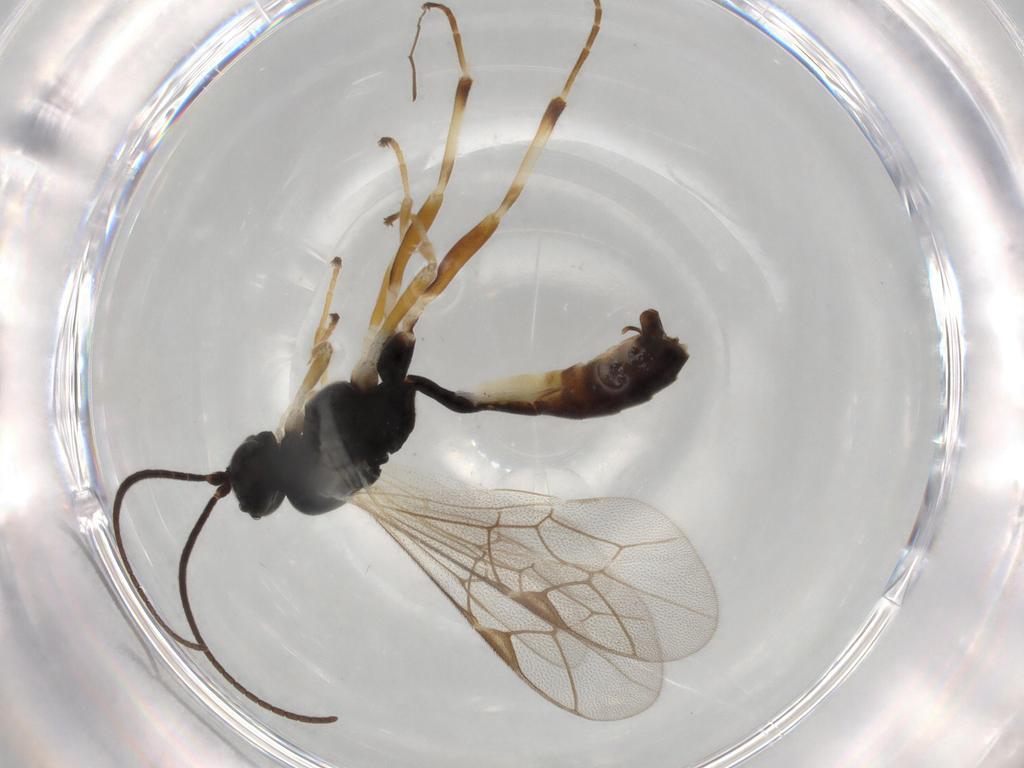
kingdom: Animalia
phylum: Arthropoda
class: Insecta
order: Hymenoptera
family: Ichneumonidae
